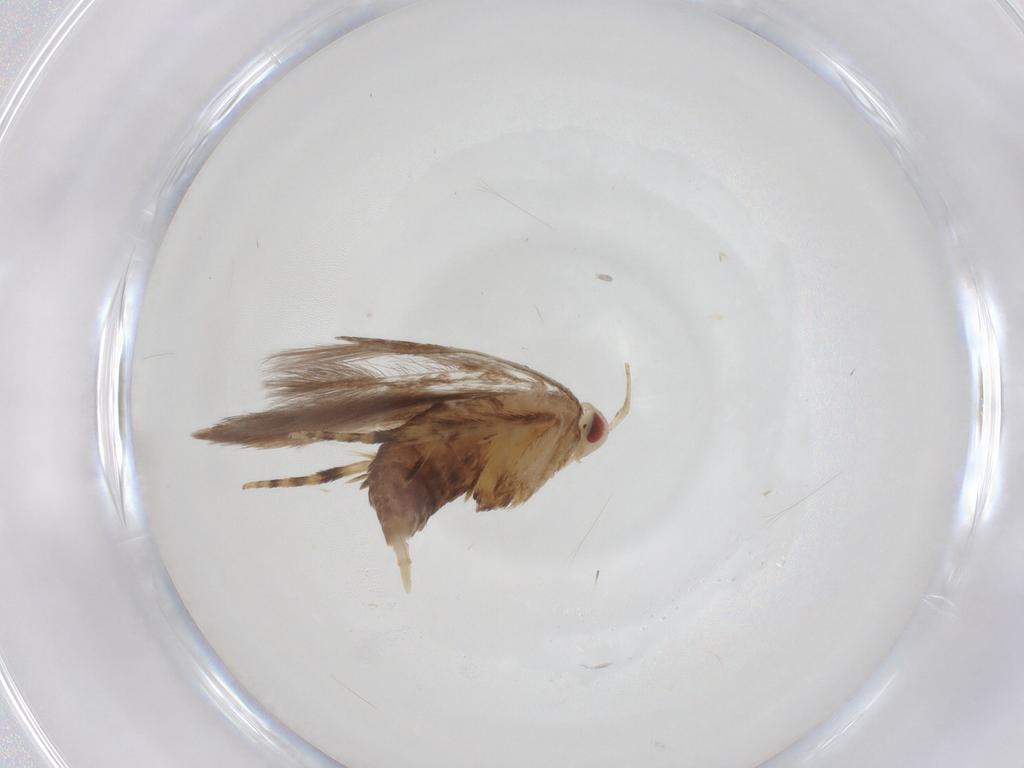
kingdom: Animalia
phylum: Arthropoda
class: Insecta
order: Lepidoptera
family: Cosmopterigidae
